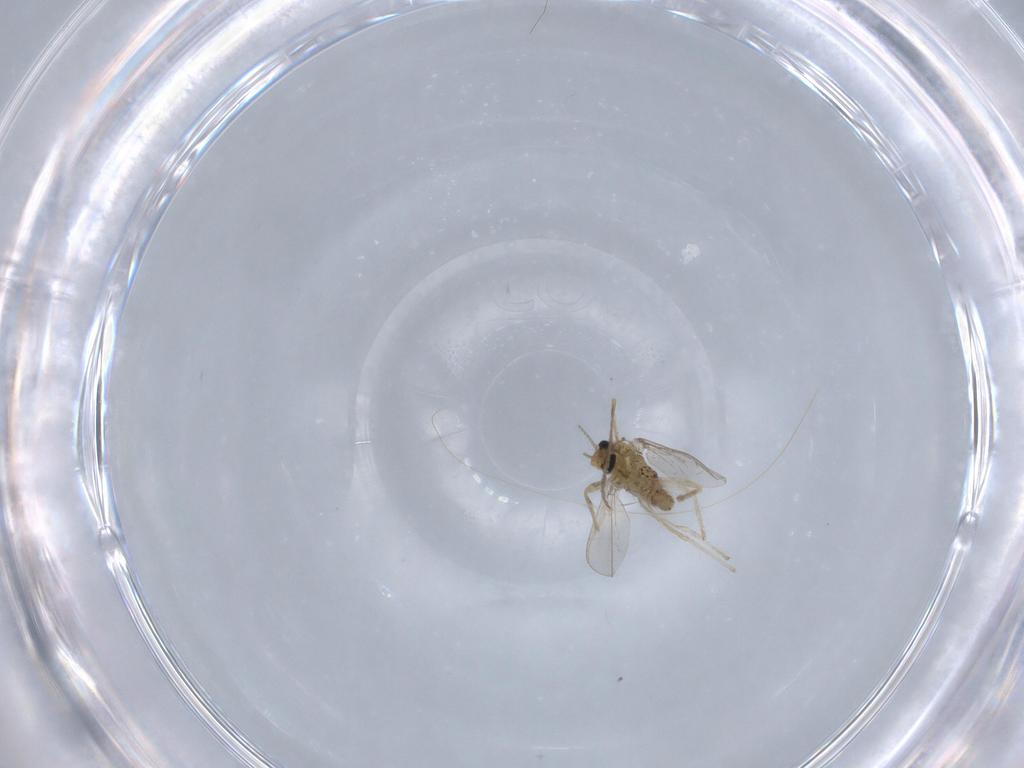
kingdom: Animalia
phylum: Arthropoda
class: Insecta
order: Diptera
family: Chironomidae
